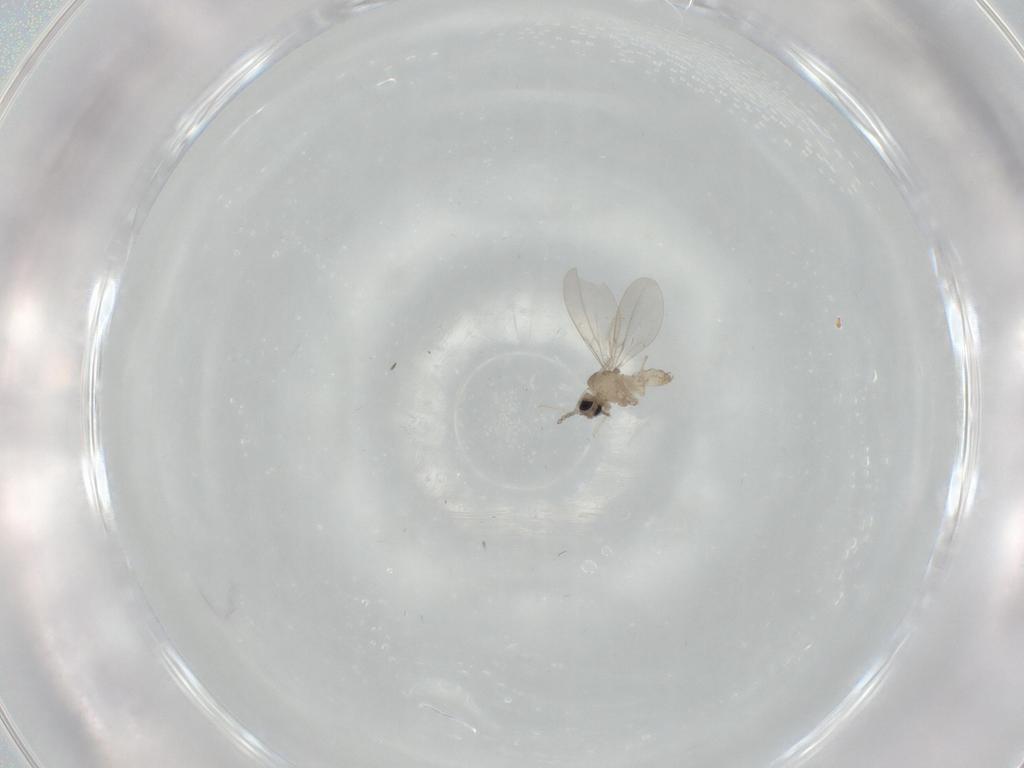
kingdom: Animalia
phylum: Arthropoda
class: Insecta
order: Diptera
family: Cecidomyiidae
